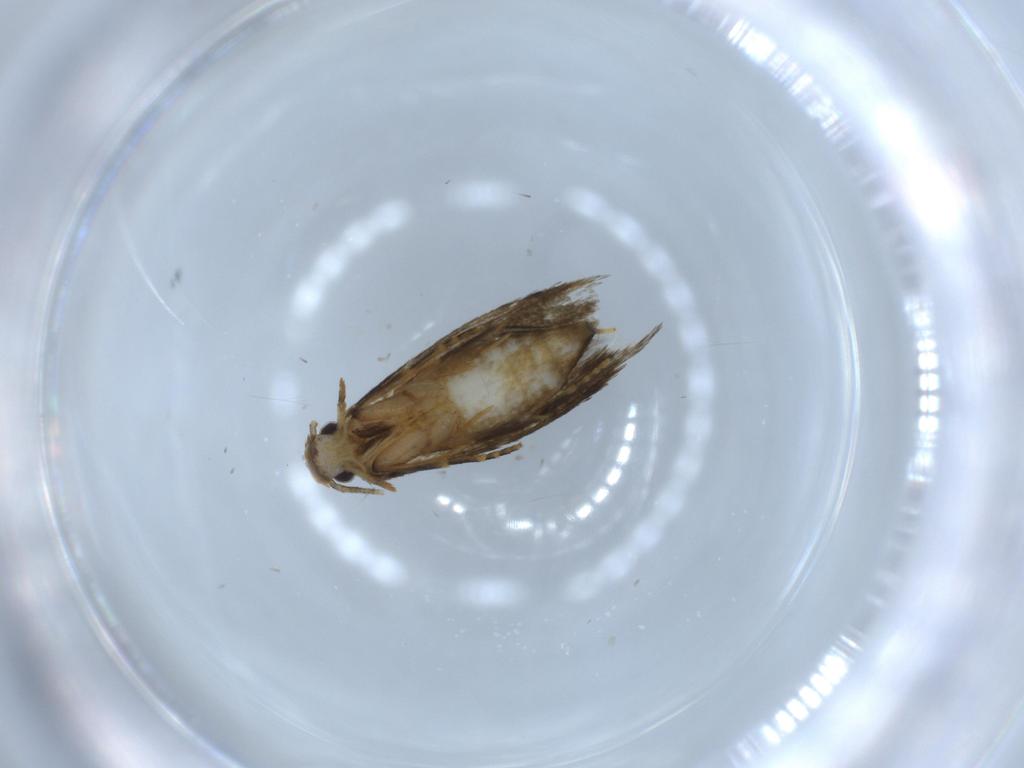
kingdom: Animalia
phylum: Arthropoda
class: Insecta
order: Lepidoptera
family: Tineidae
